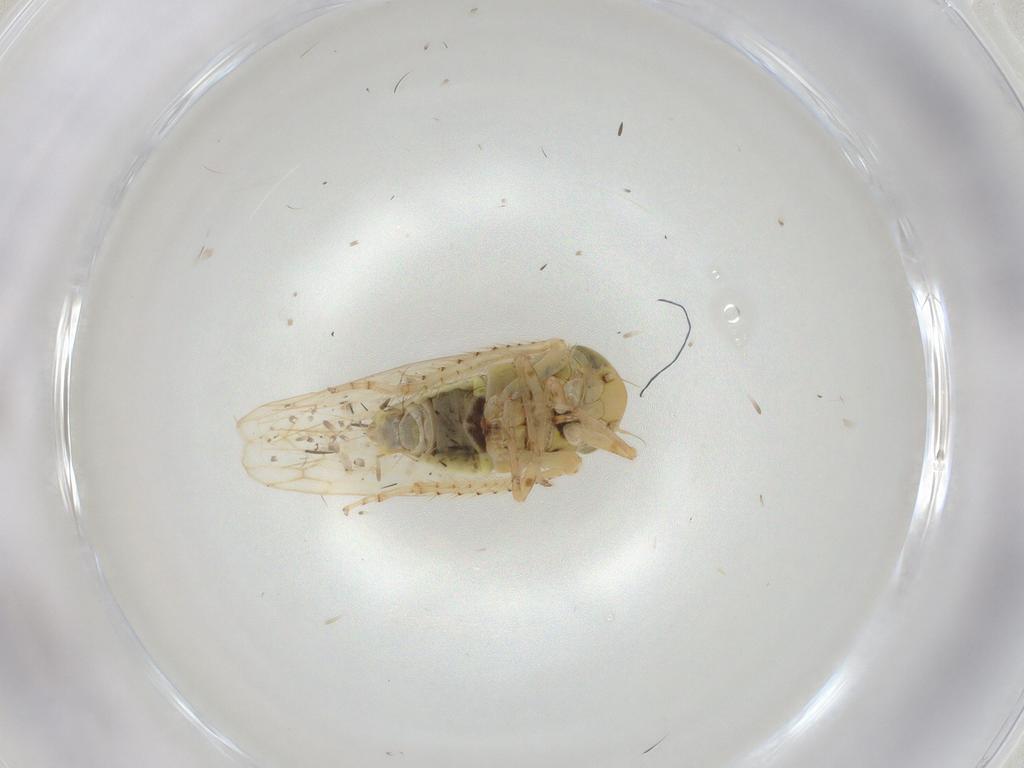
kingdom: Animalia
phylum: Arthropoda
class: Insecta
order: Hemiptera
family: Cicadellidae
